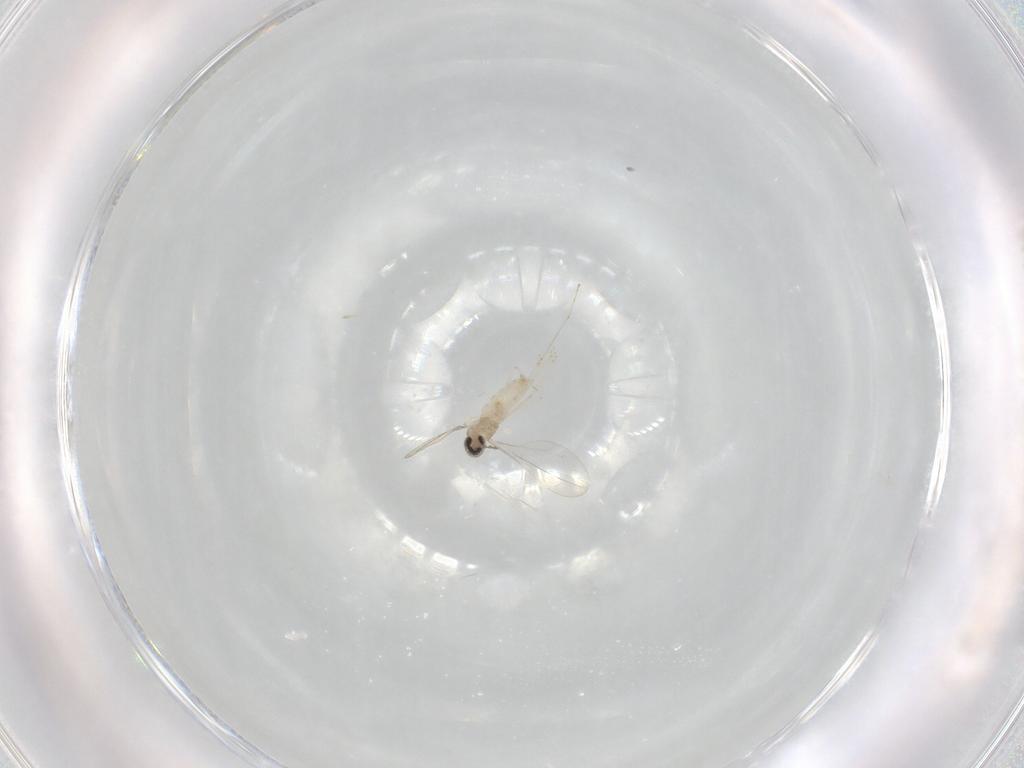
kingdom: Animalia
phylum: Arthropoda
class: Insecta
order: Diptera
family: Cecidomyiidae
